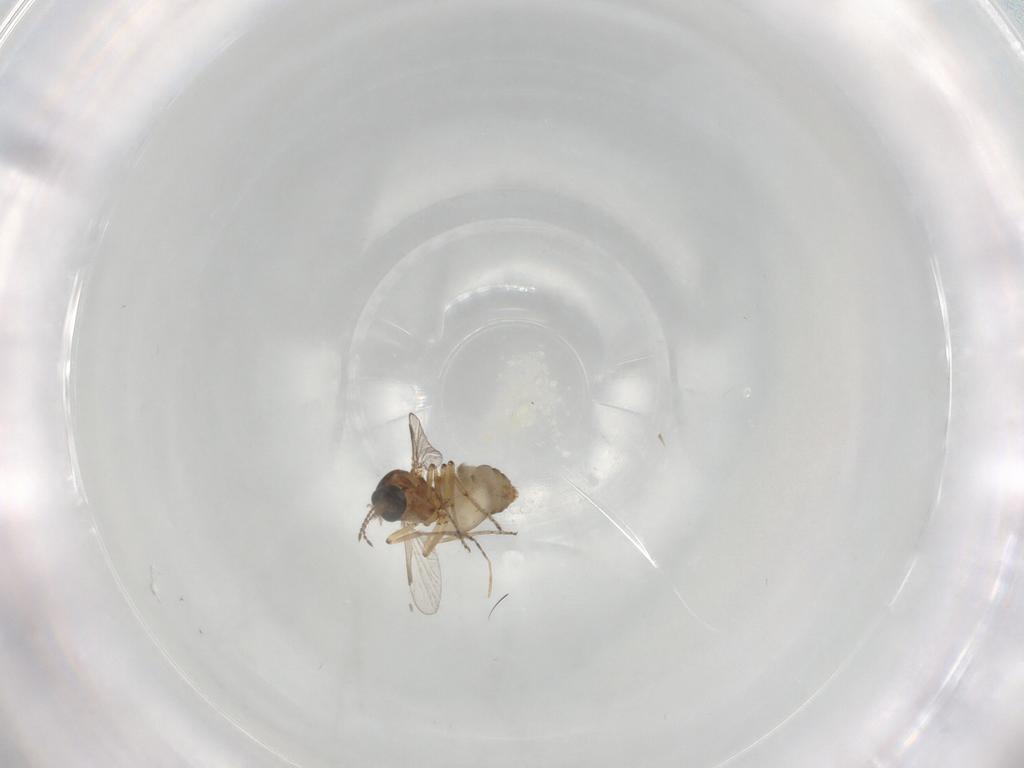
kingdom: Animalia
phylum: Arthropoda
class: Insecta
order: Diptera
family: Ceratopogonidae
